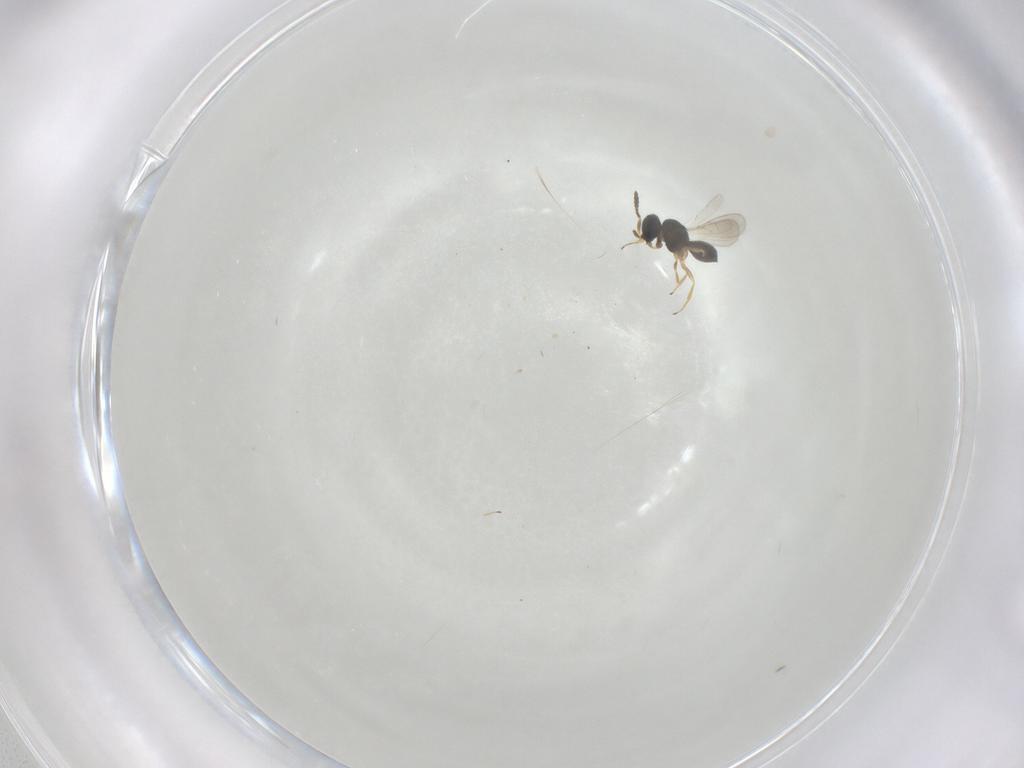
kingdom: Animalia
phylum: Arthropoda
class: Insecta
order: Hymenoptera
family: Scelionidae
